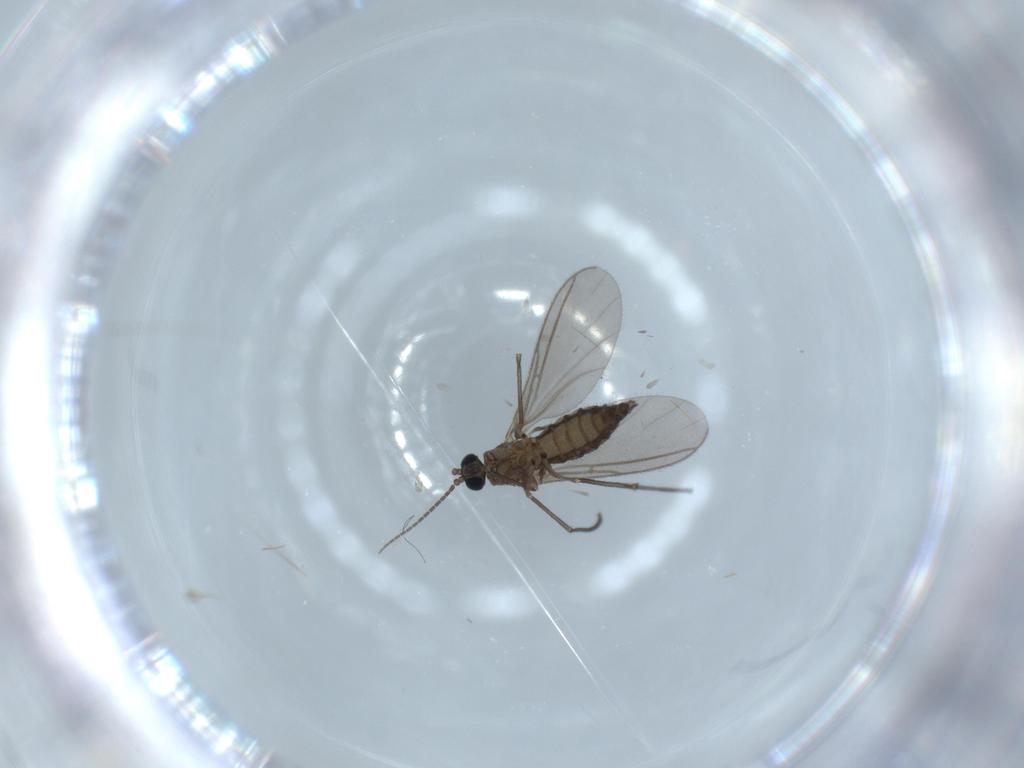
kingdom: Animalia
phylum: Arthropoda
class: Insecta
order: Diptera
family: Sciaridae
